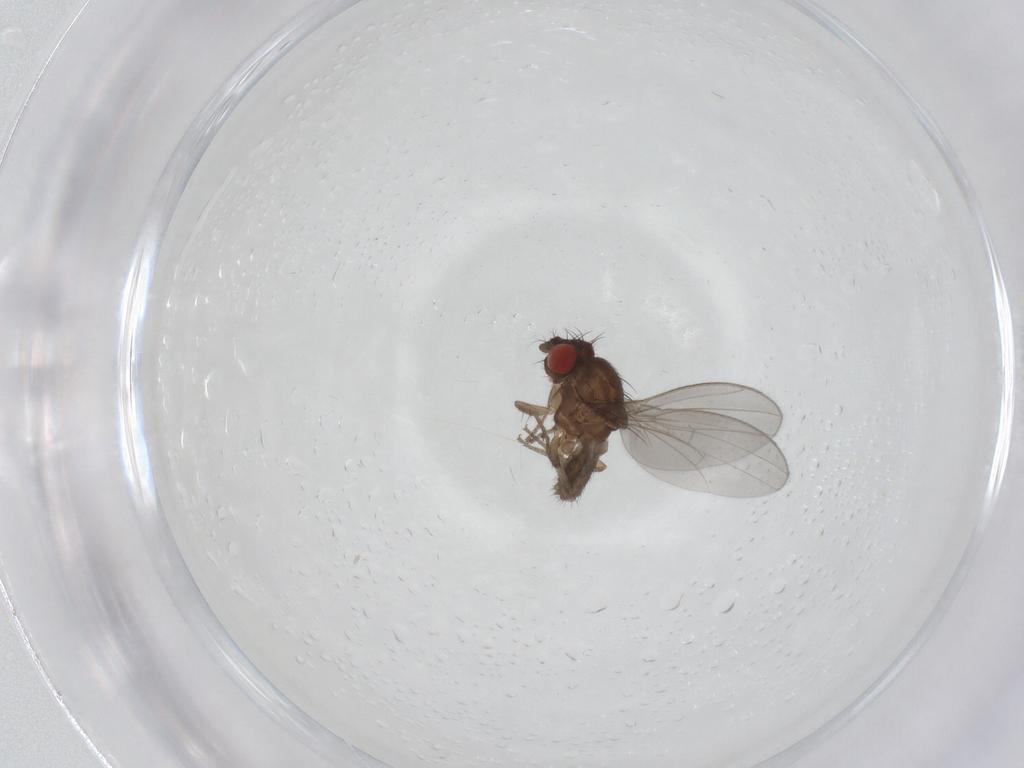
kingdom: Animalia
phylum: Arthropoda
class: Insecta
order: Diptera
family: Drosophilidae
